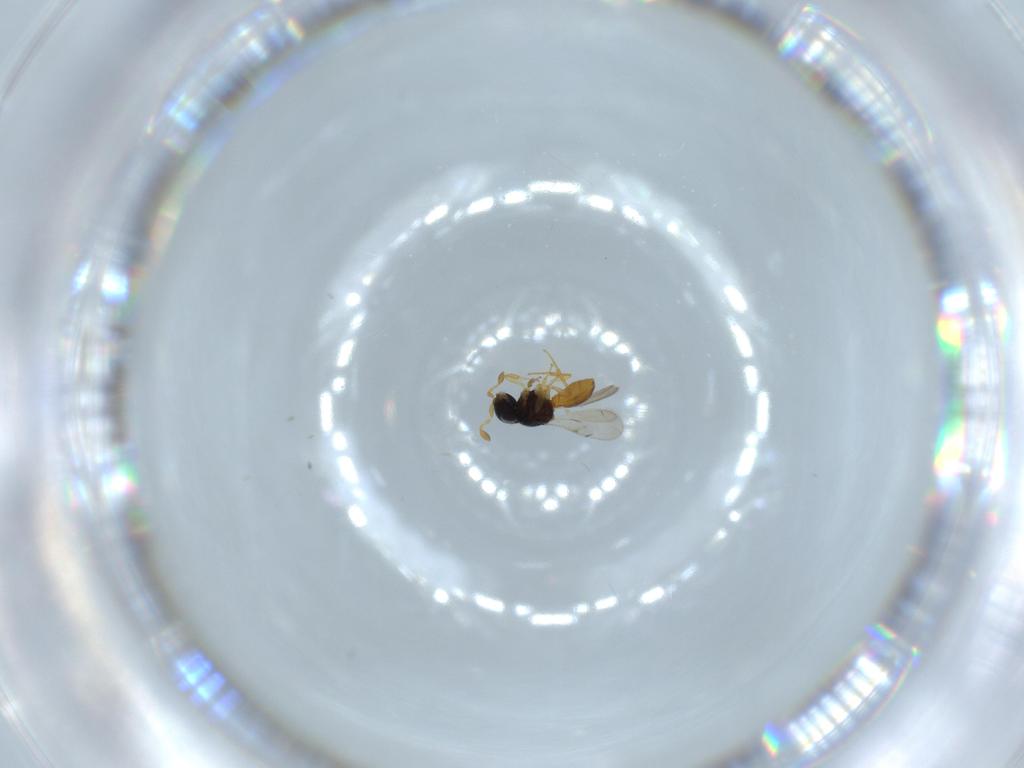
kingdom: Animalia
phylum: Arthropoda
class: Insecta
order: Hymenoptera
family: Scelionidae
